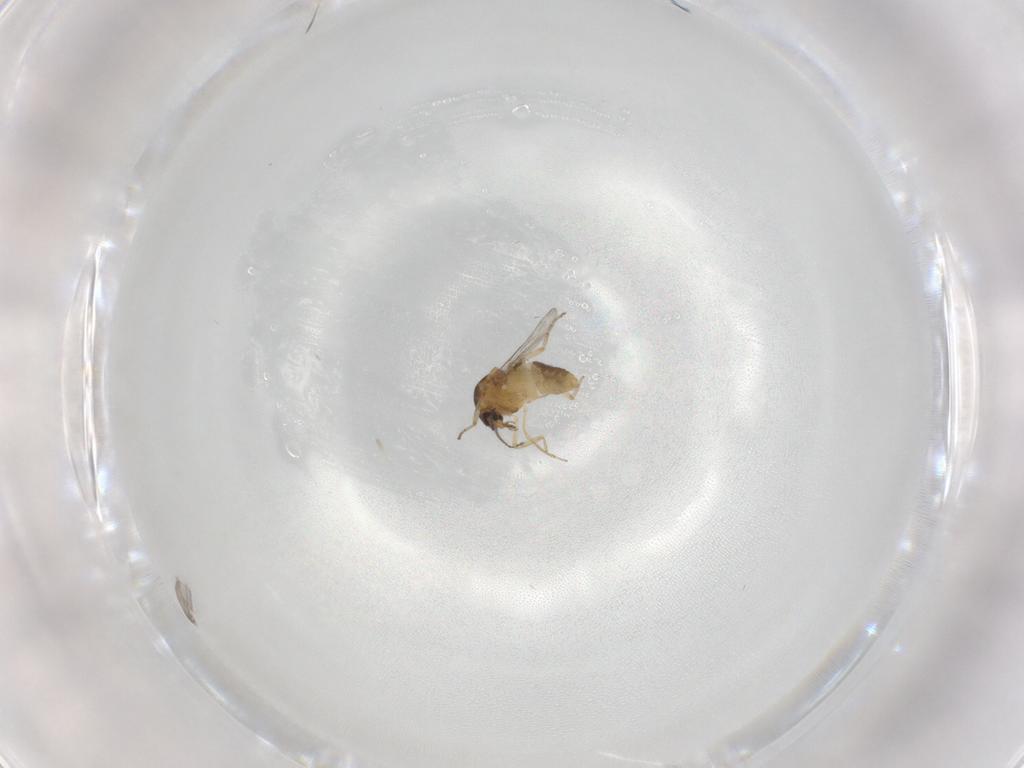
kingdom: Animalia
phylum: Arthropoda
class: Insecta
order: Diptera
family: Ceratopogonidae
